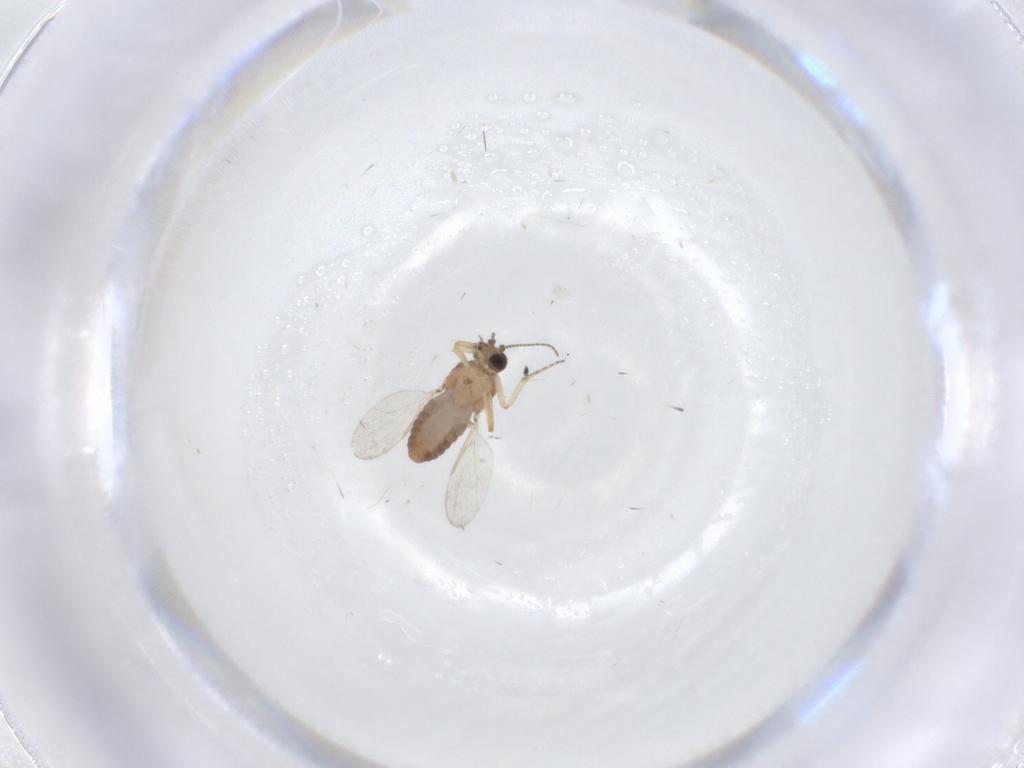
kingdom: Animalia
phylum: Arthropoda
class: Insecta
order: Diptera
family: Ceratopogonidae
